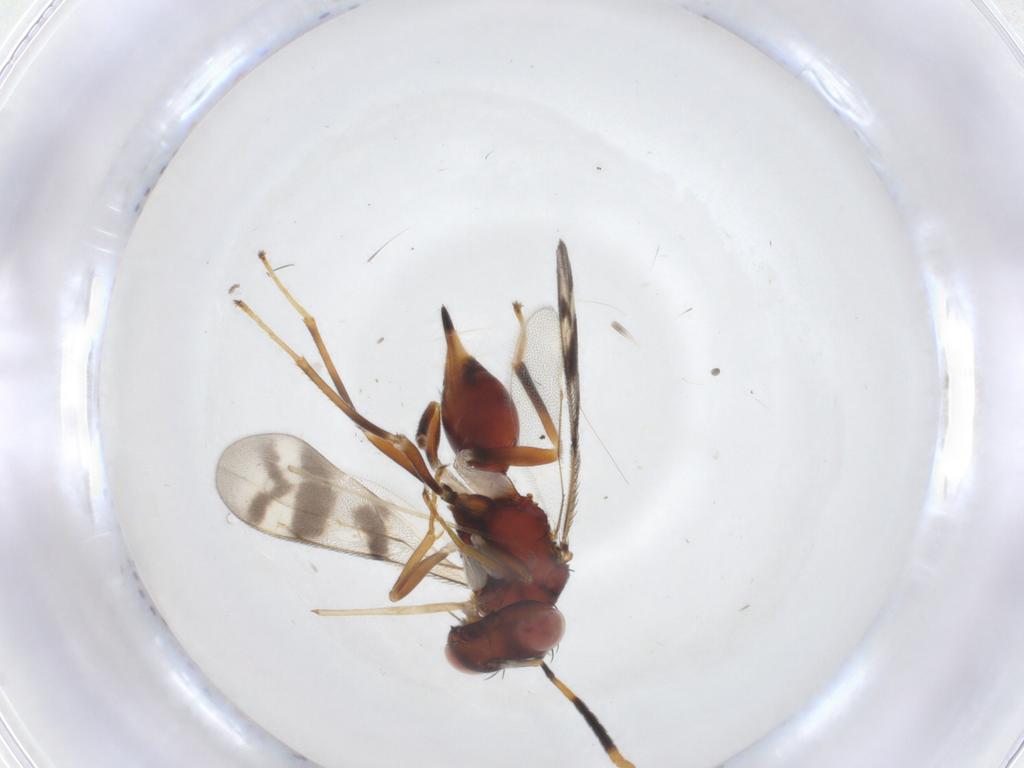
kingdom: Animalia
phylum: Arthropoda
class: Insecta
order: Hymenoptera
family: Diparidae
